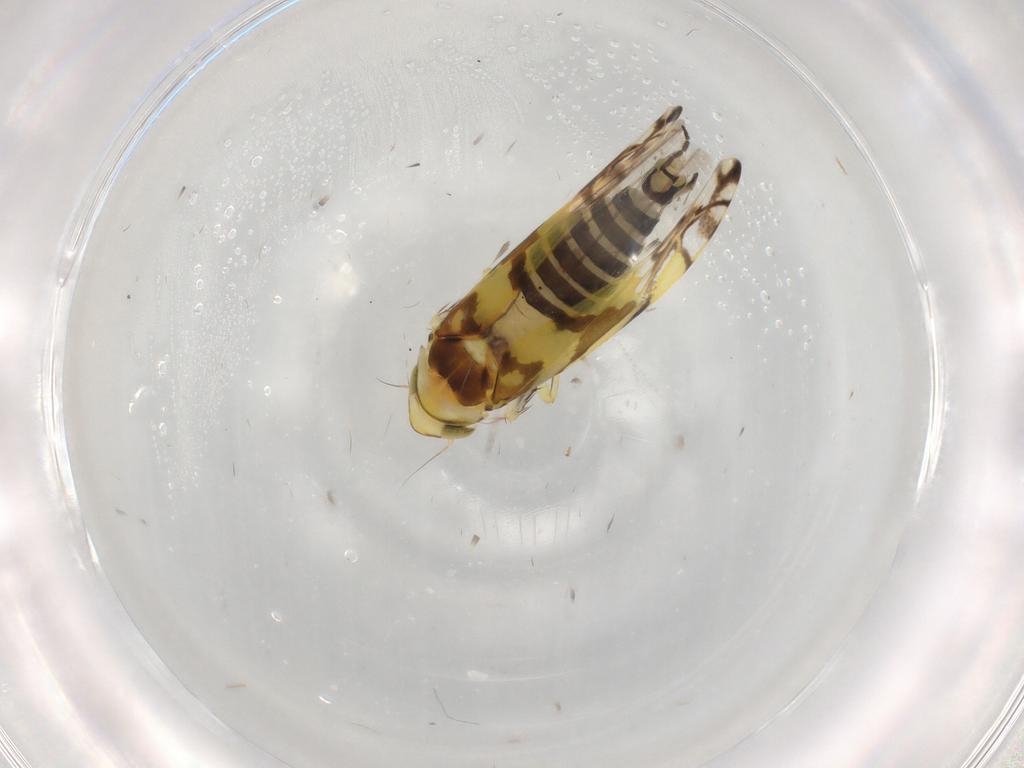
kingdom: Animalia
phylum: Arthropoda
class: Insecta
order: Hemiptera
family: Cicadellidae
